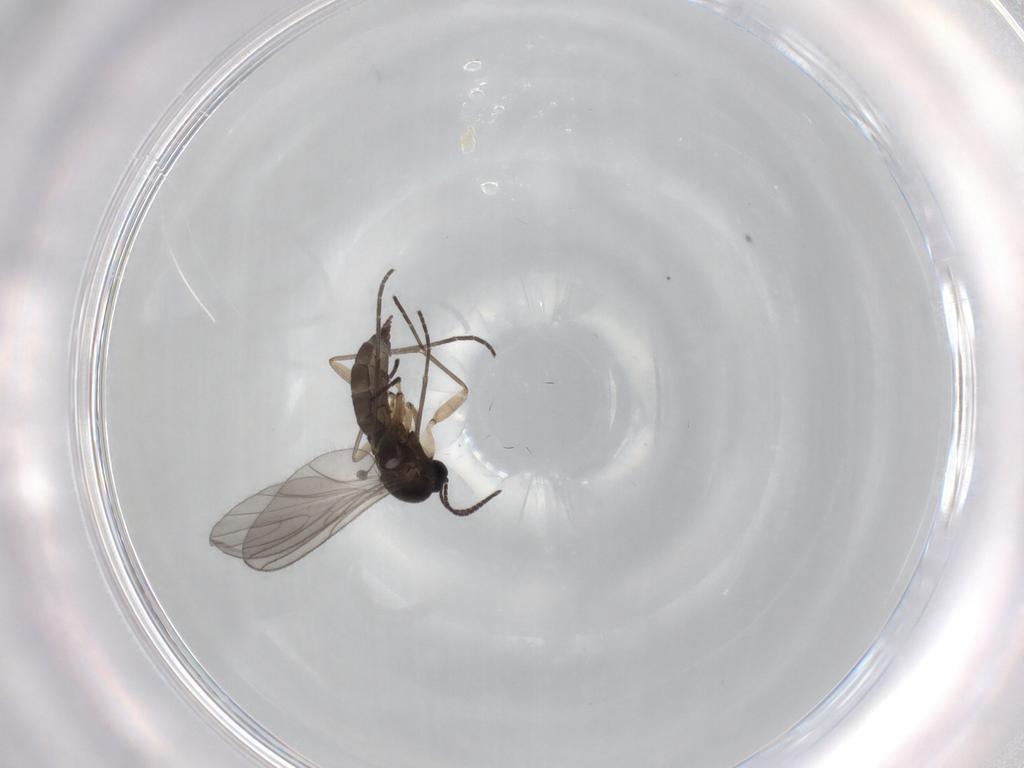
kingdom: Animalia
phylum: Arthropoda
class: Insecta
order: Diptera
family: Sciaridae
